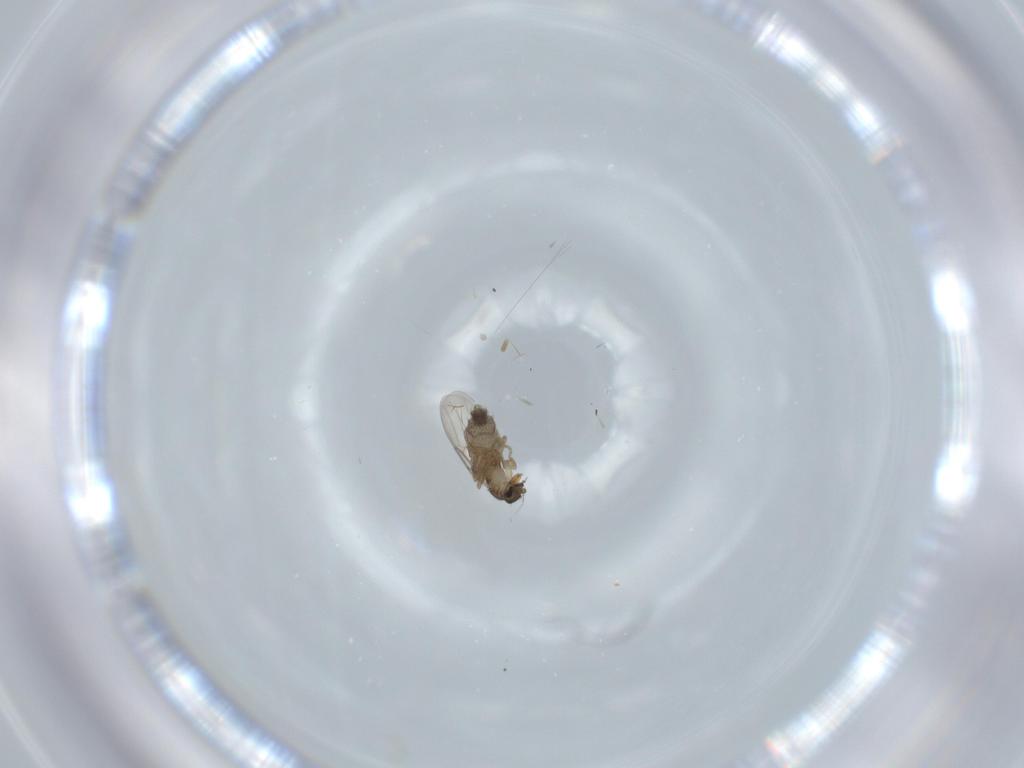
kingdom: Animalia
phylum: Arthropoda
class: Insecta
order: Diptera
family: Phoridae
